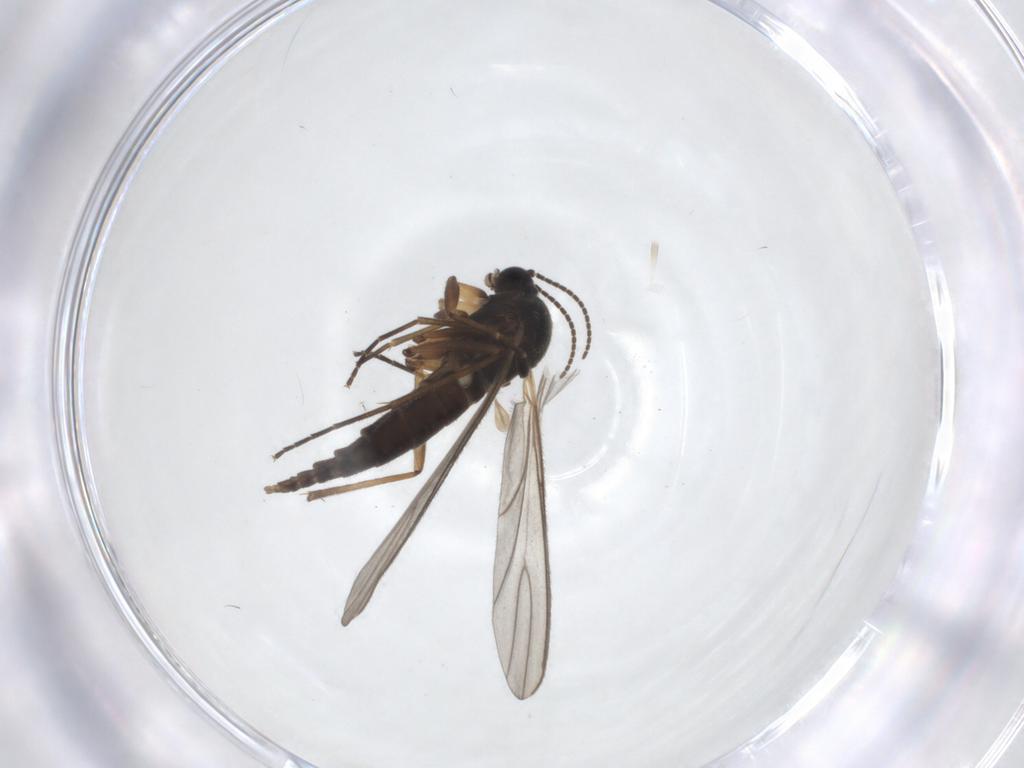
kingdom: Animalia
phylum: Arthropoda
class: Insecta
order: Diptera
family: Sciaridae
